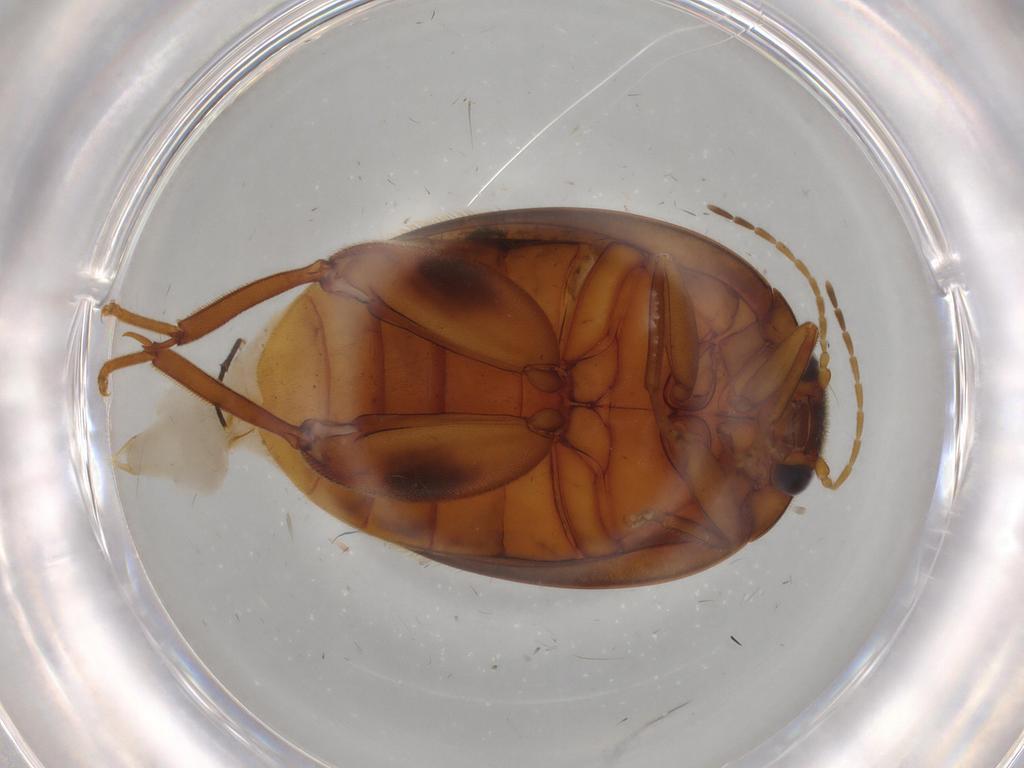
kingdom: Animalia
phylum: Arthropoda
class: Insecta
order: Coleoptera
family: Scirtidae
